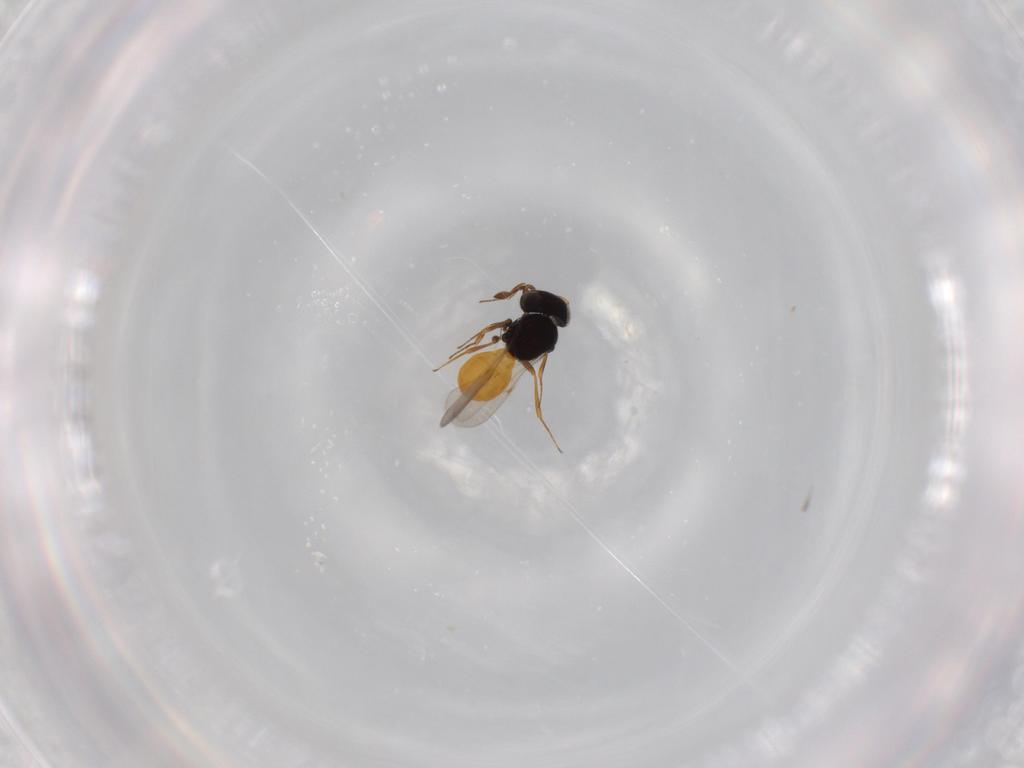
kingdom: Animalia
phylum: Arthropoda
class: Insecta
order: Hymenoptera
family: Scelionidae
